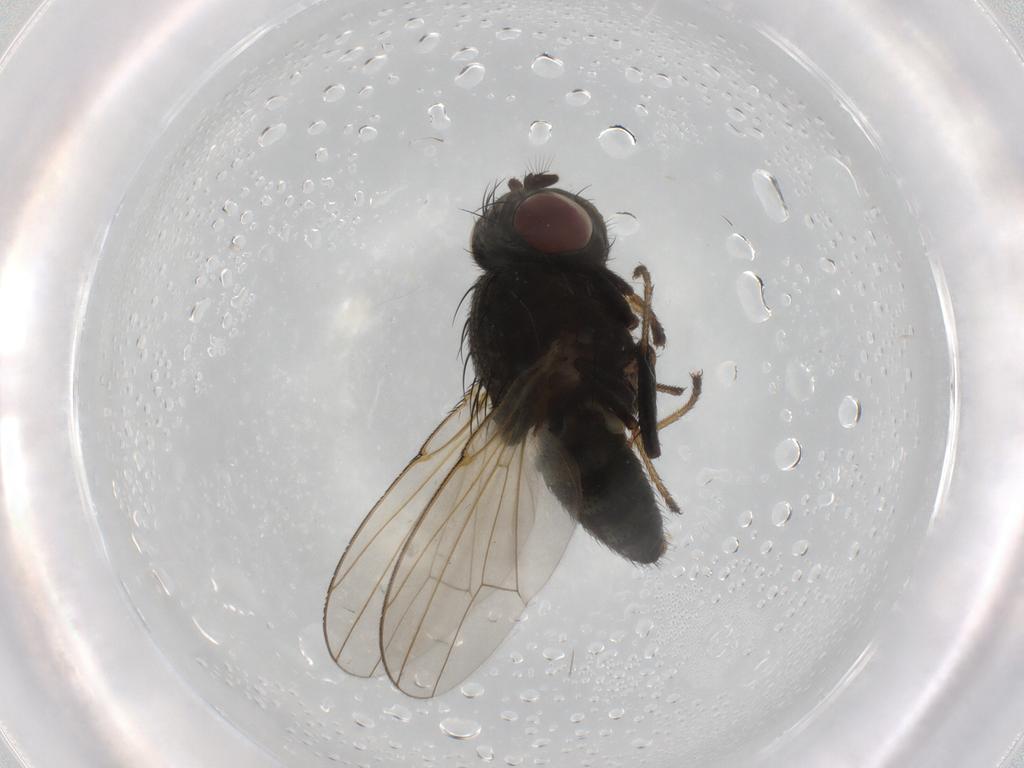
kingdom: Animalia
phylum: Arthropoda
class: Insecta
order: Diptera
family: Ephydridae
